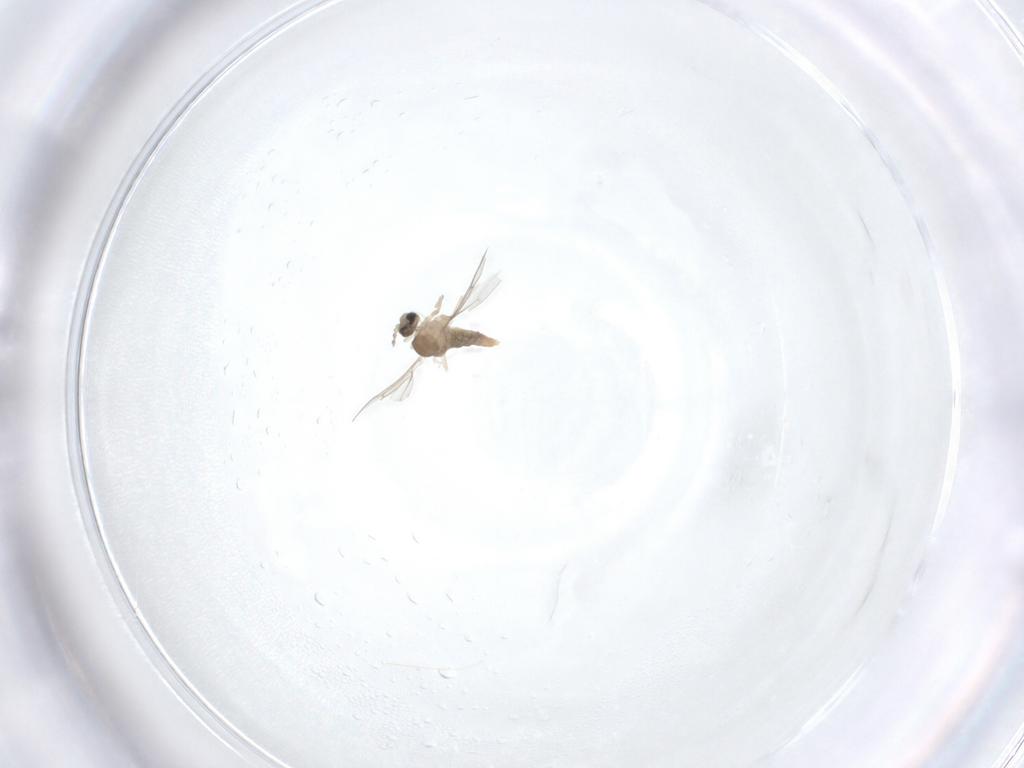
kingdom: Animalia
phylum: Arthropoda
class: Insecta
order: Diptera
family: Cecidomyiidae
